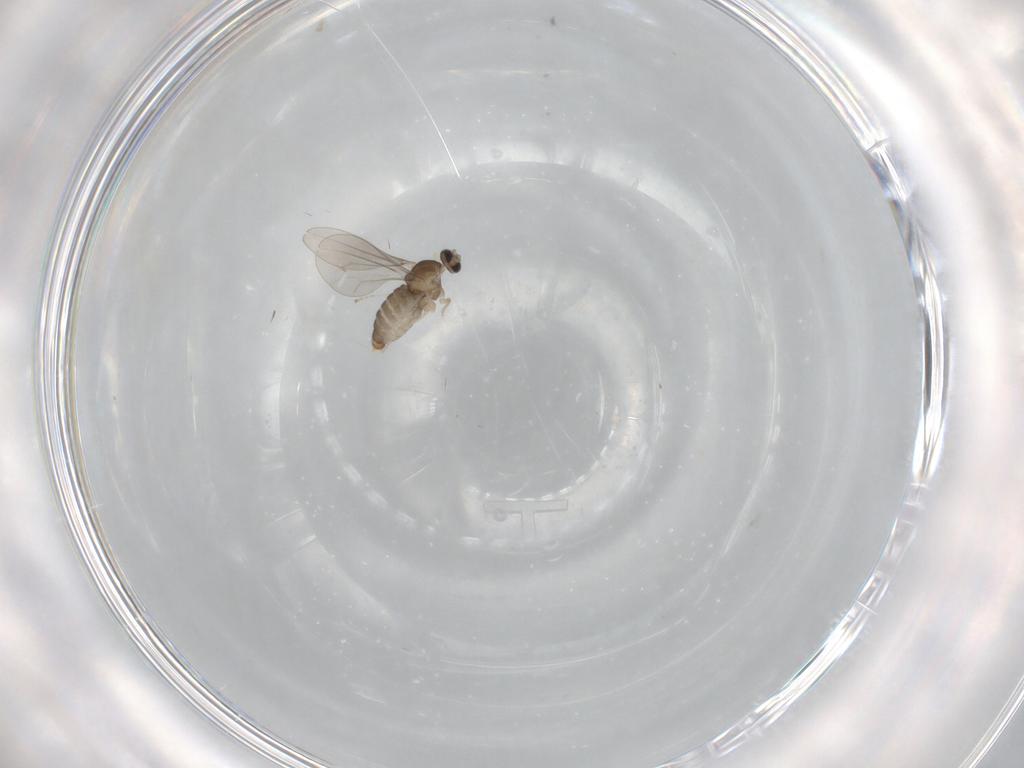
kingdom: Animalia
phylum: Arthropoda
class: Insecta
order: Diptera
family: Cecidomyiidae
